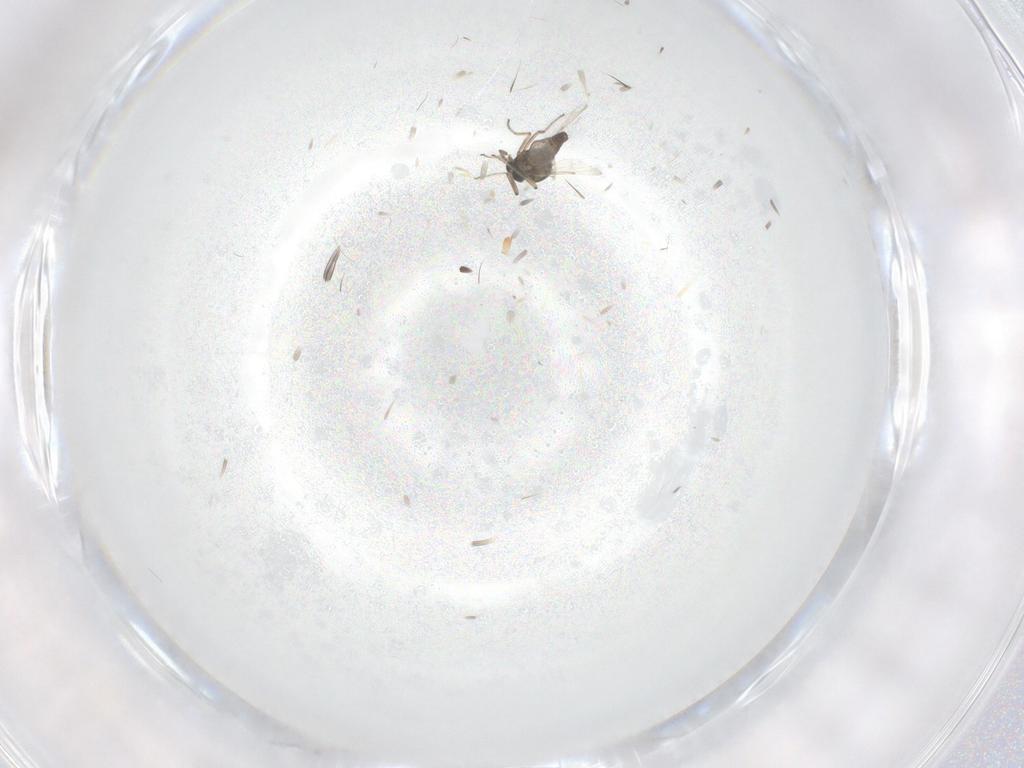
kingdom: Animalia
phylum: Arthropoda
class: Insecta
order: Diptera
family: Ceratopogonidae
